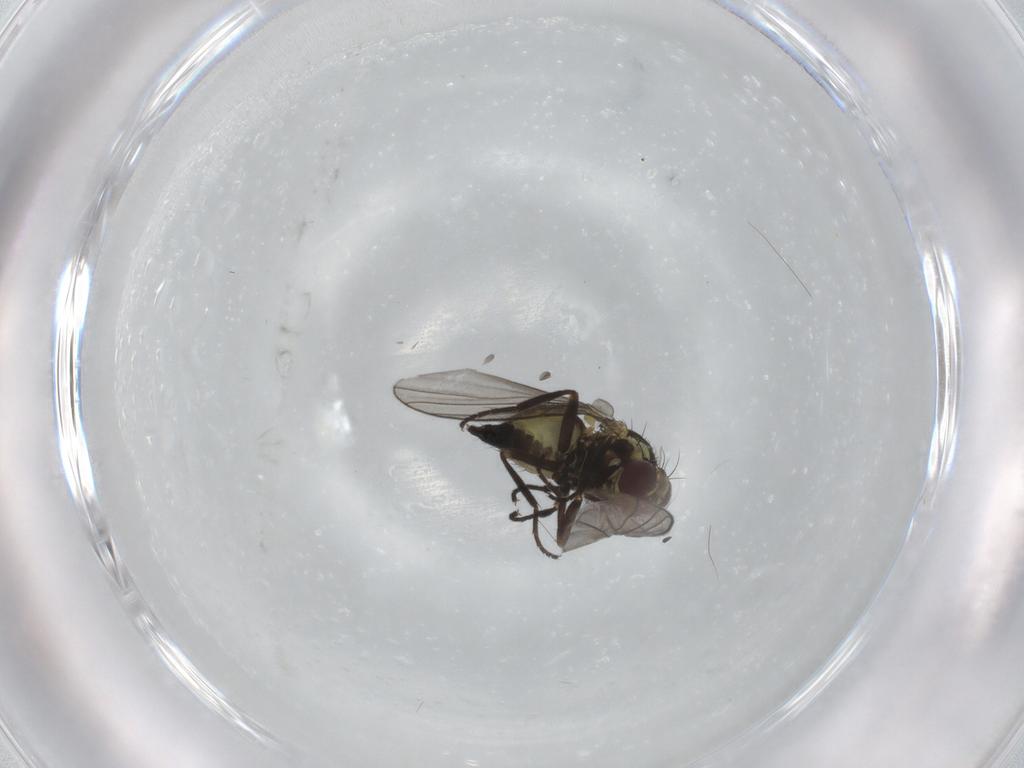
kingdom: Animalia
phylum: Arthropoda
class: Insecta
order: Diptera
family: Agromyzidae
